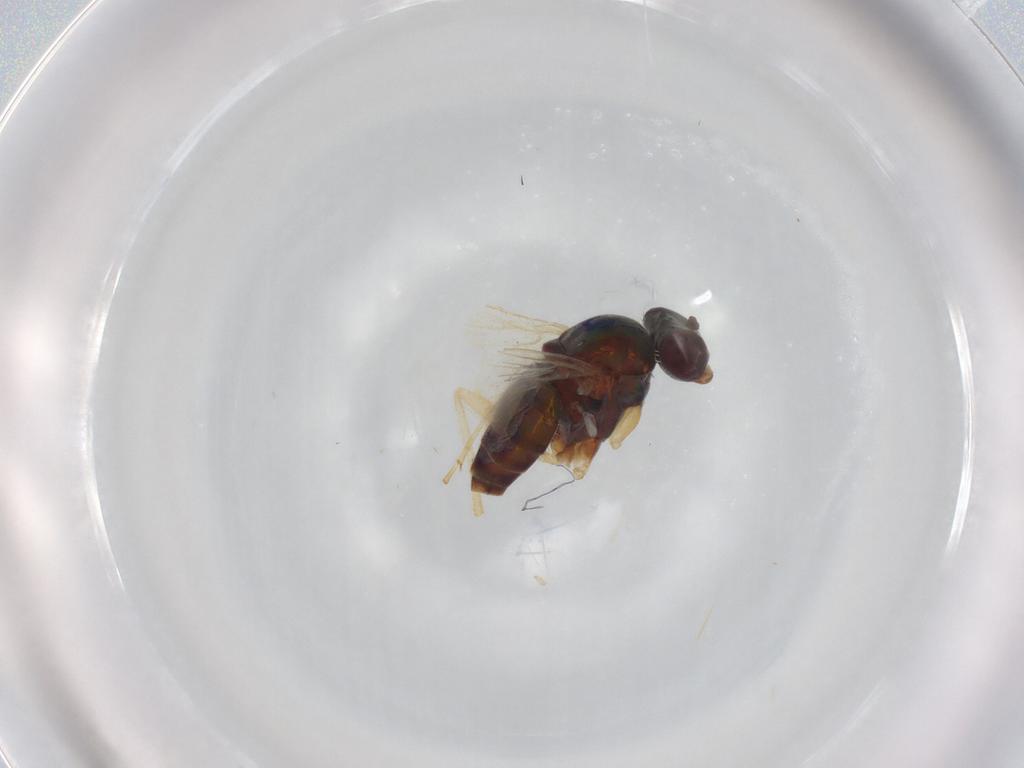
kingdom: Animalia
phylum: Arthropoda
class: Insecta
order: Diptera
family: Dolichopodidae
